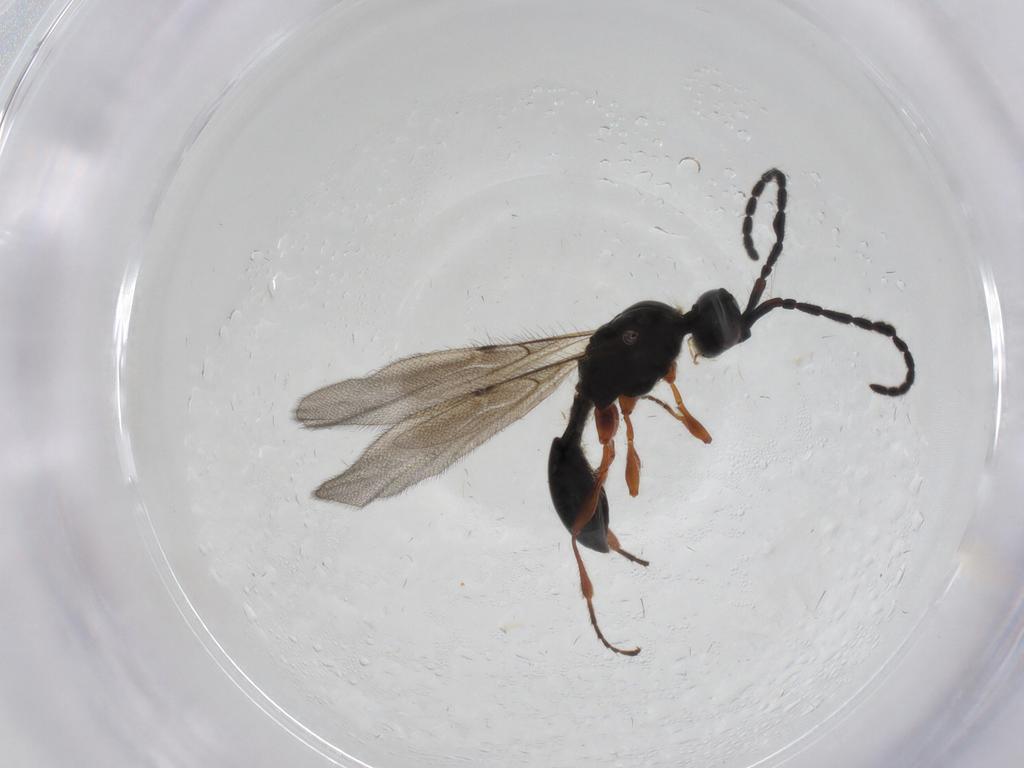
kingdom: Animalia
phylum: Arthropoda
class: Insecta
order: Hymenoptera
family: Diapriidae
